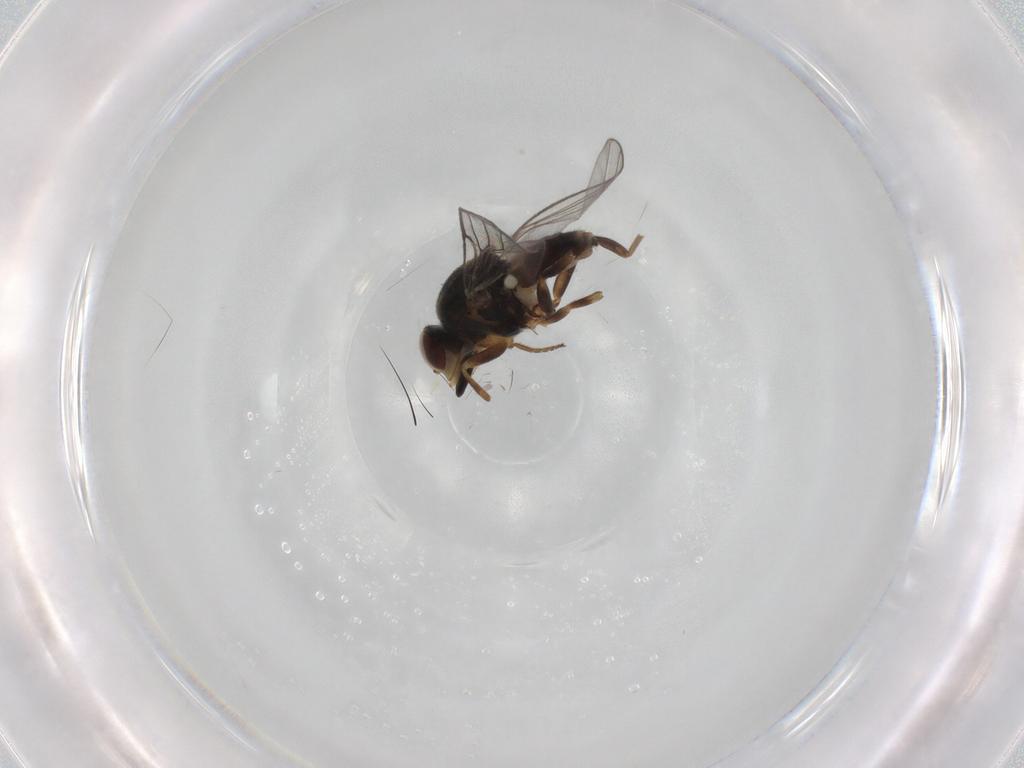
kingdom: Animalia
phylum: Arthropoda
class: Insecta
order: Diptera
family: Chloropidae
